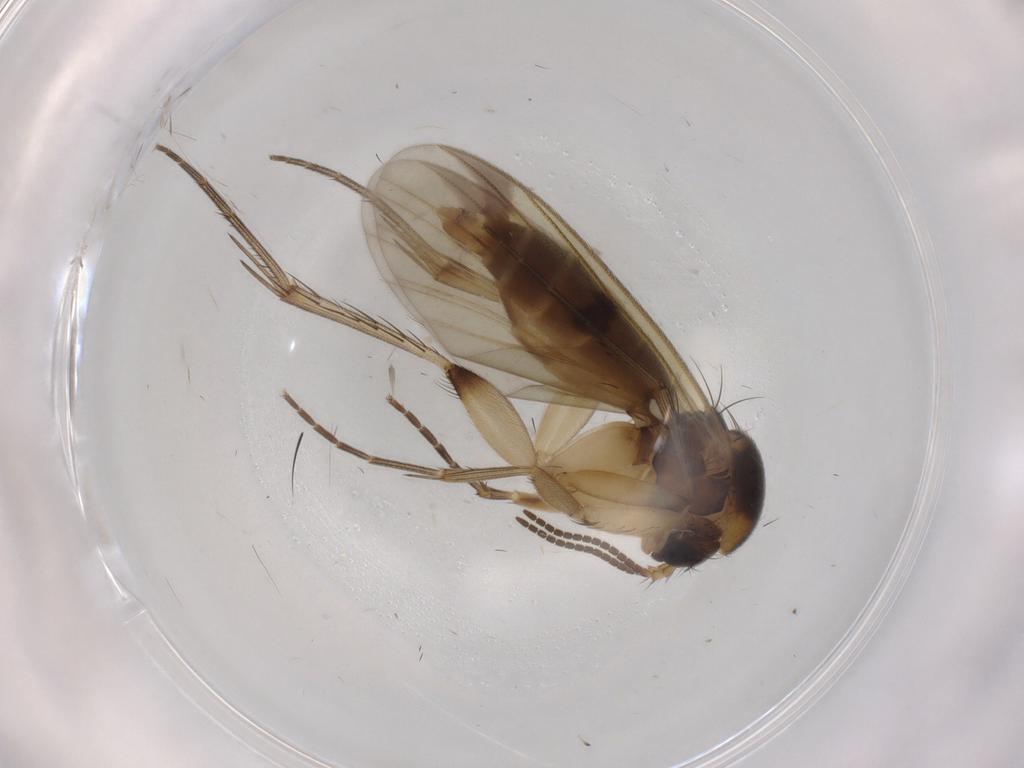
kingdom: Animalia
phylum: Arthropoda
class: Insecta
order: Diptera
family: Mycetophilidae
